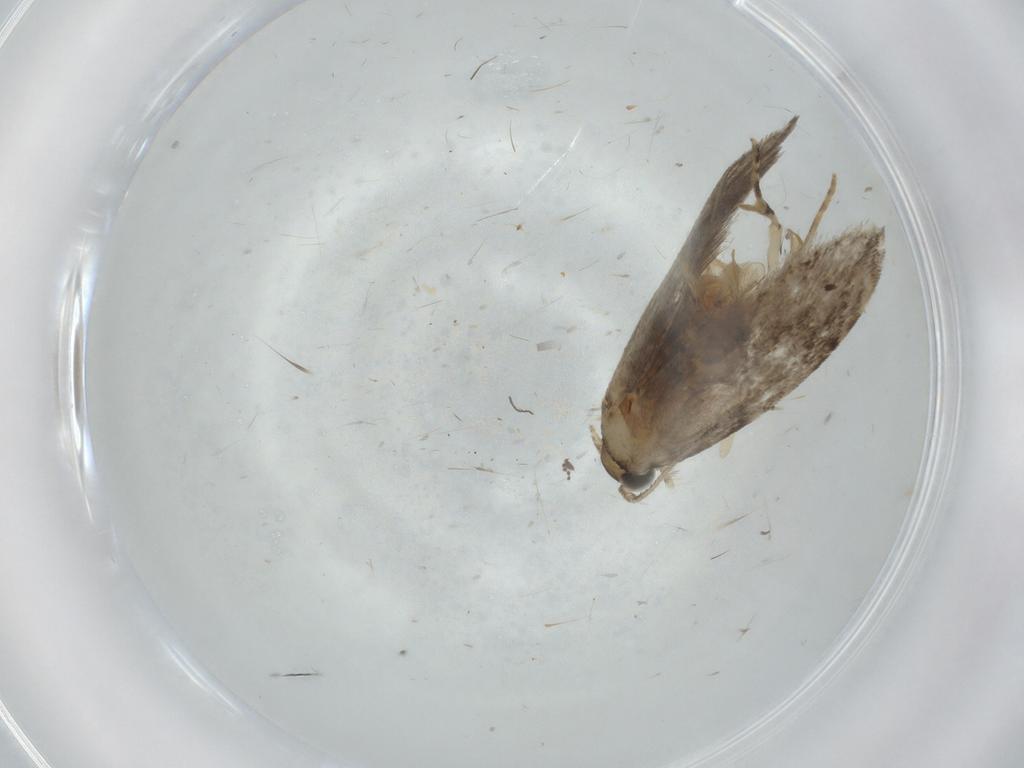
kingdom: Animalia
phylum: Arthropoda
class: Insecta
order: Lepidoptera
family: Tineidae
